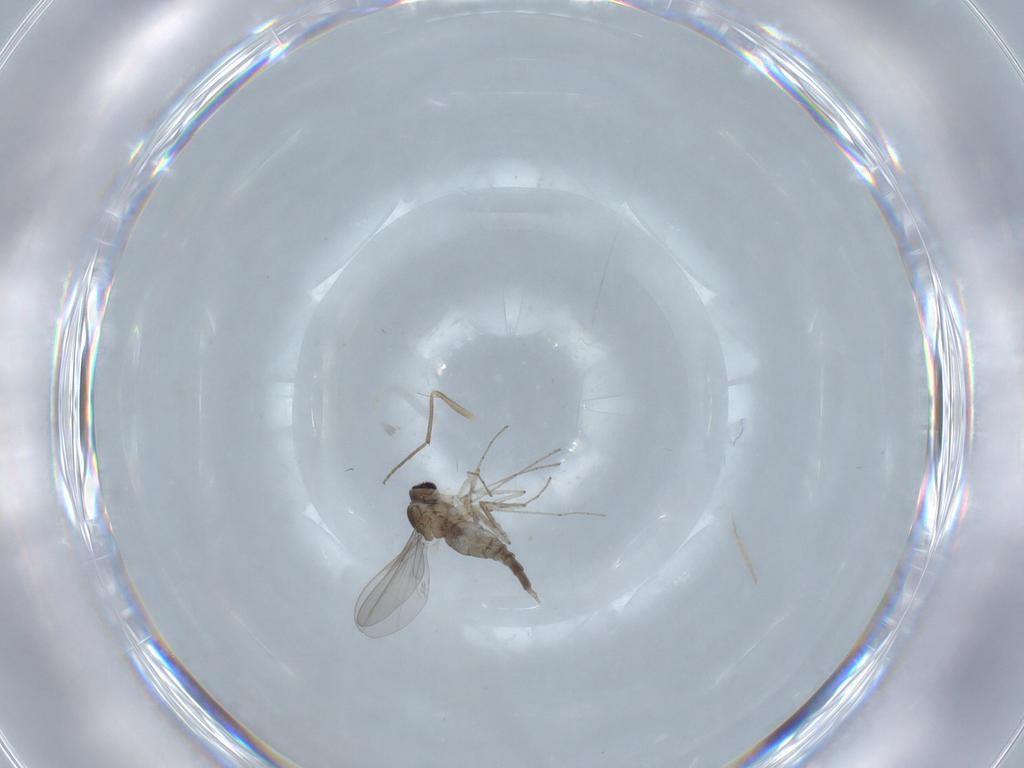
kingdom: Animalia
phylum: Arthropoda
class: Insecta
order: Diptera
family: Cecidomyiidae
